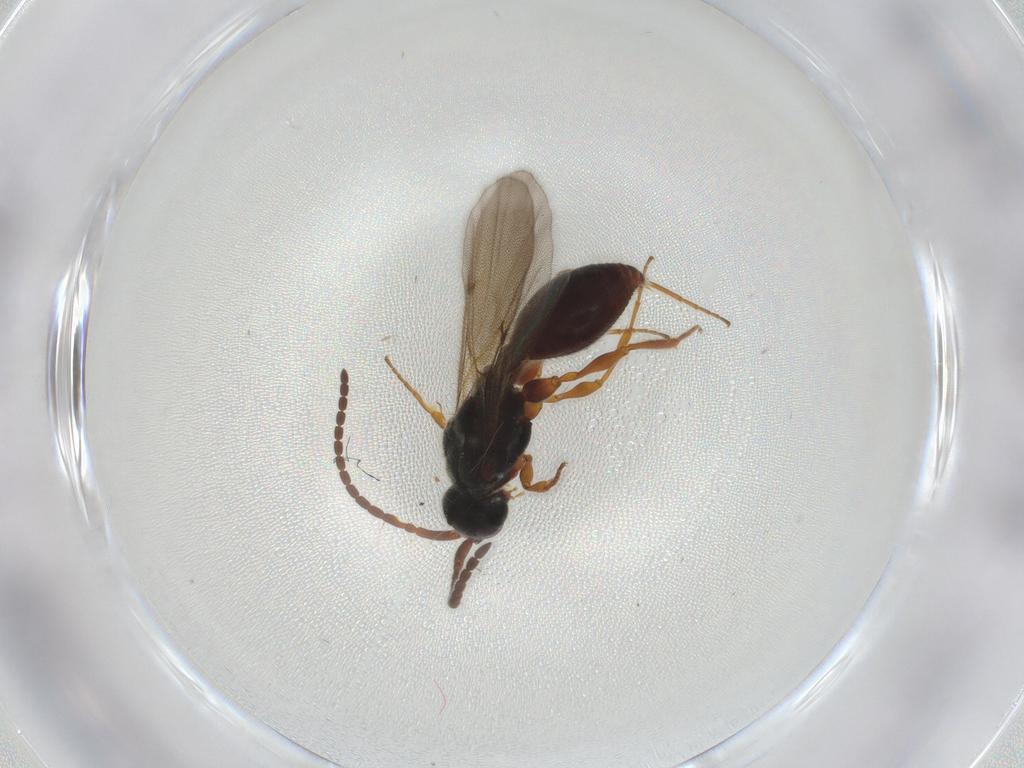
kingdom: Animalia
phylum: Arthropoda
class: Insecta
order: Hymenoptera
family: Diapriidae
